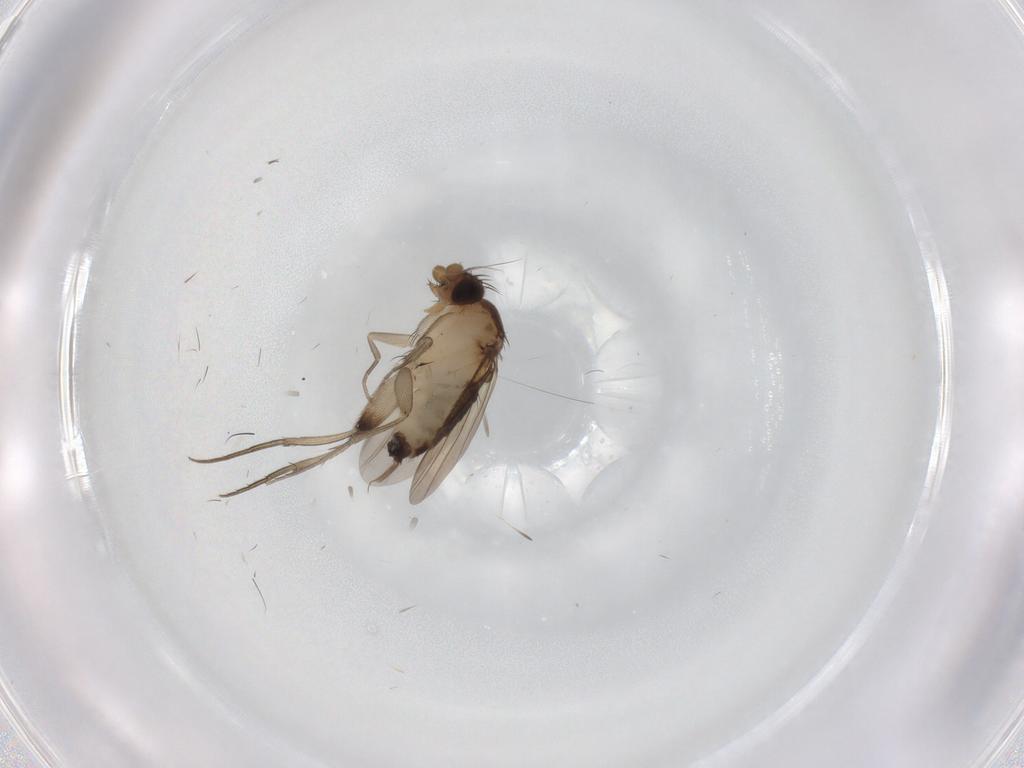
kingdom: Animalia
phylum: Arthropoda
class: Insecta
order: Diptera
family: Phoridae
